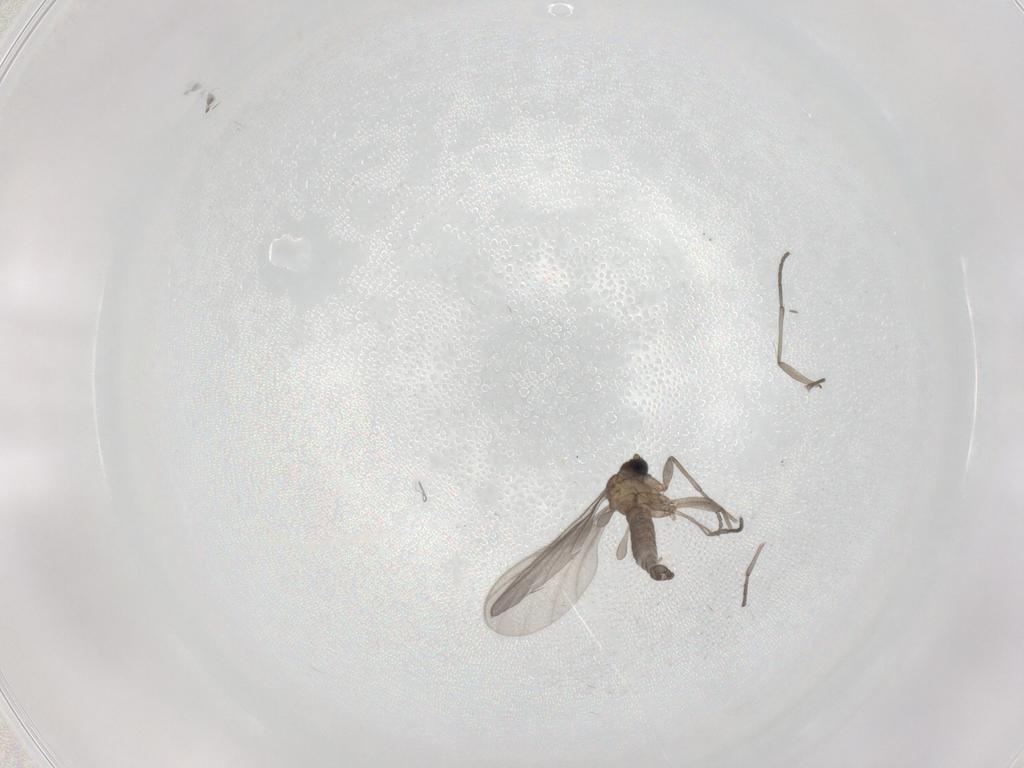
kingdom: Animalia
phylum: Arthropoda
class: Insecta
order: Diptera
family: Sciaridae
